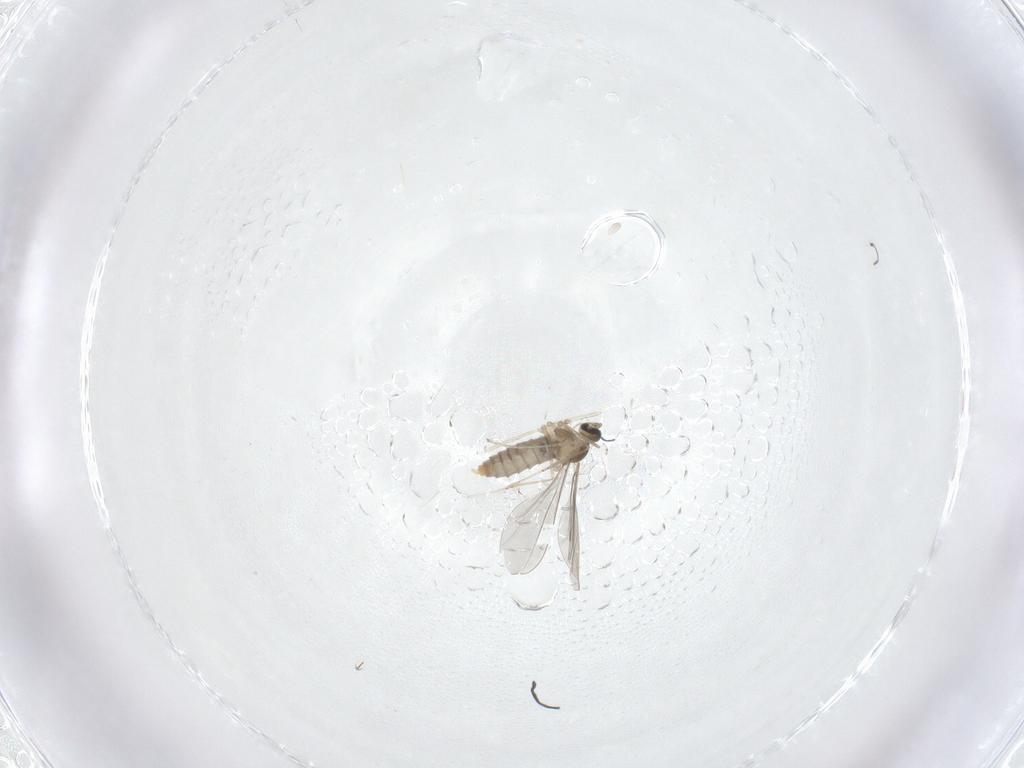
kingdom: Animalia
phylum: Arthropoda
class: Insecta
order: Diptera
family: Cecidomyiidae
